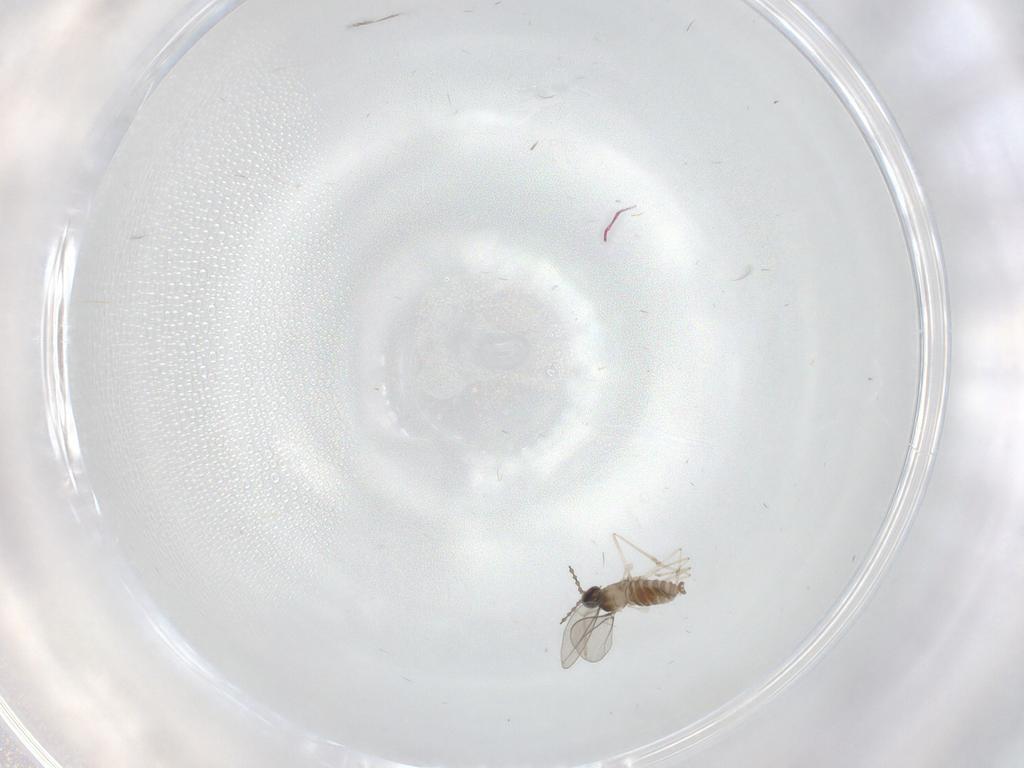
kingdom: Animalia
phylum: Arthropoda
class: Insecta
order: Diptera
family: Cecidomyiidae
